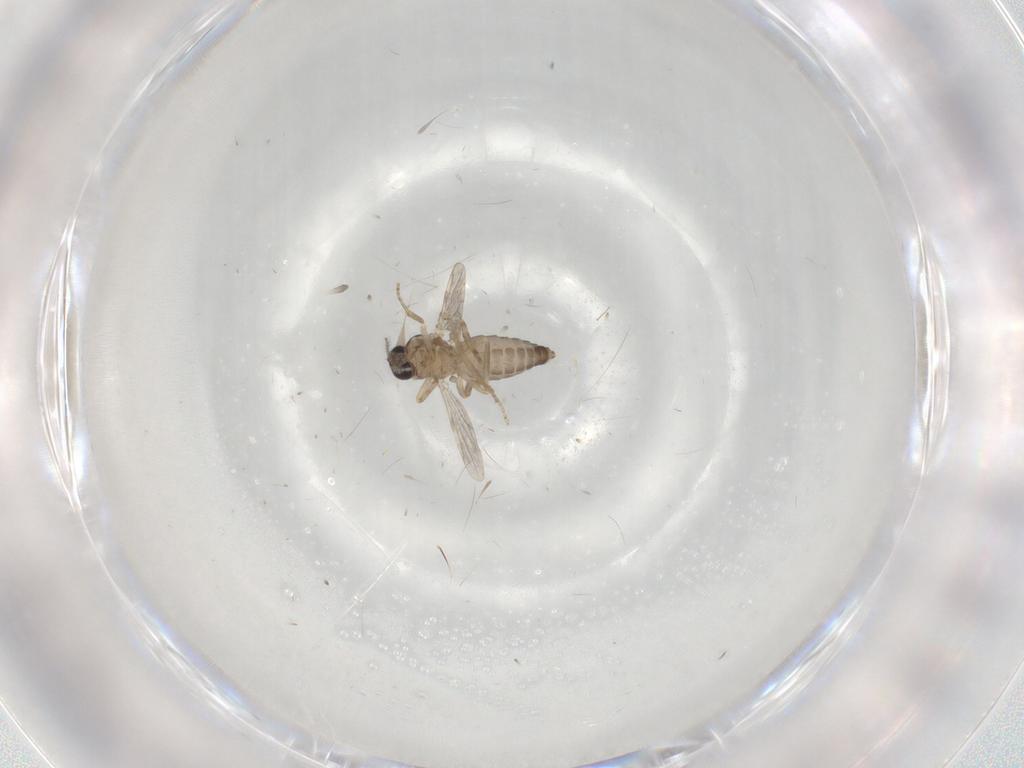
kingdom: Animalia
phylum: Arthropoda
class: Insecta
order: Diptera
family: Ceratopogonidae
